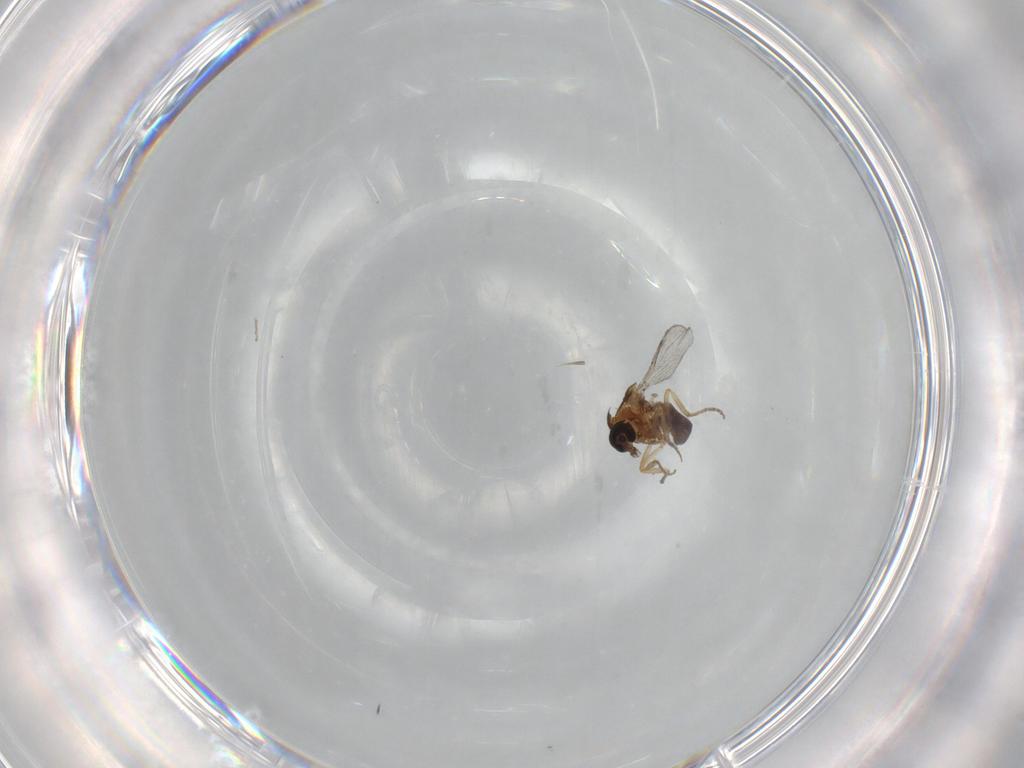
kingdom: Animalia
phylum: Arthropoda
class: Insecta
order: Diptera
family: Ceratopogonidae
